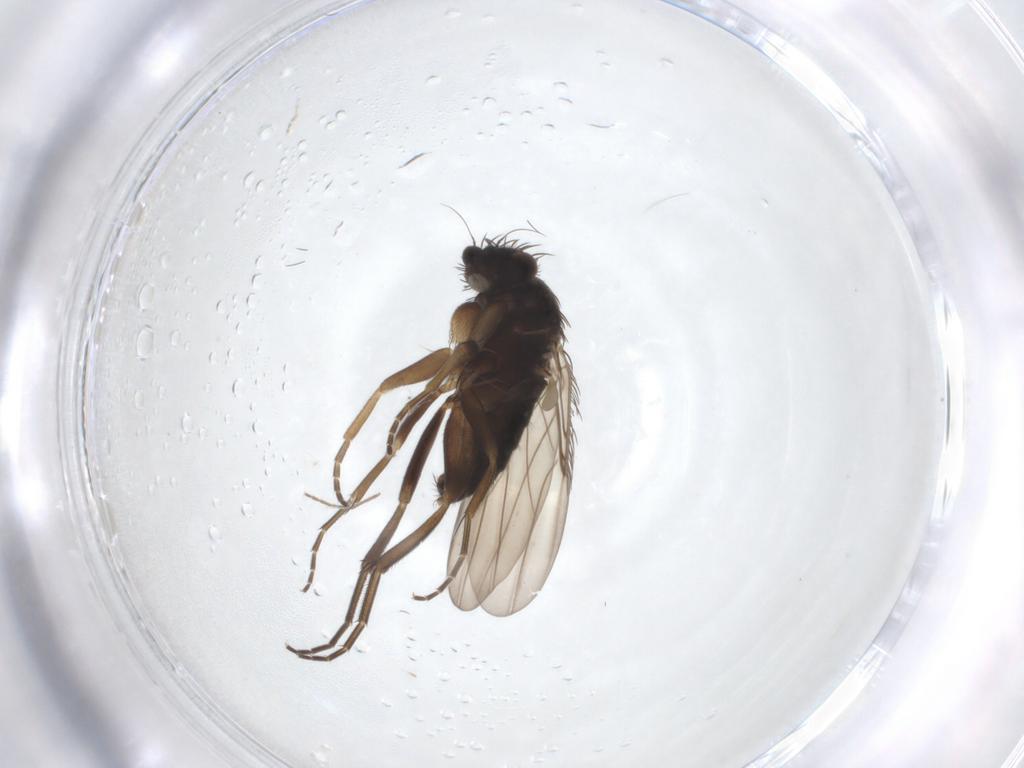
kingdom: Animalia
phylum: Arthropoda
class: Insecta
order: Diptera
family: Phoridae
